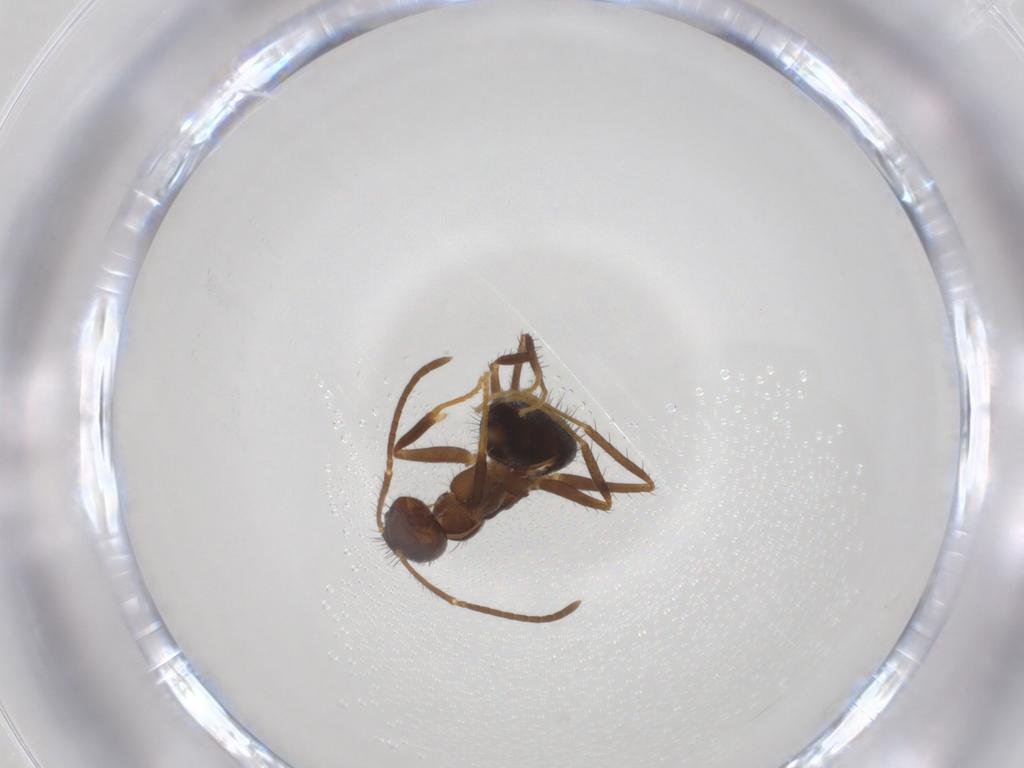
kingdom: Animalia
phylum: Arthropoda
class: Insecta
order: Hymenoptera
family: Formicidae
